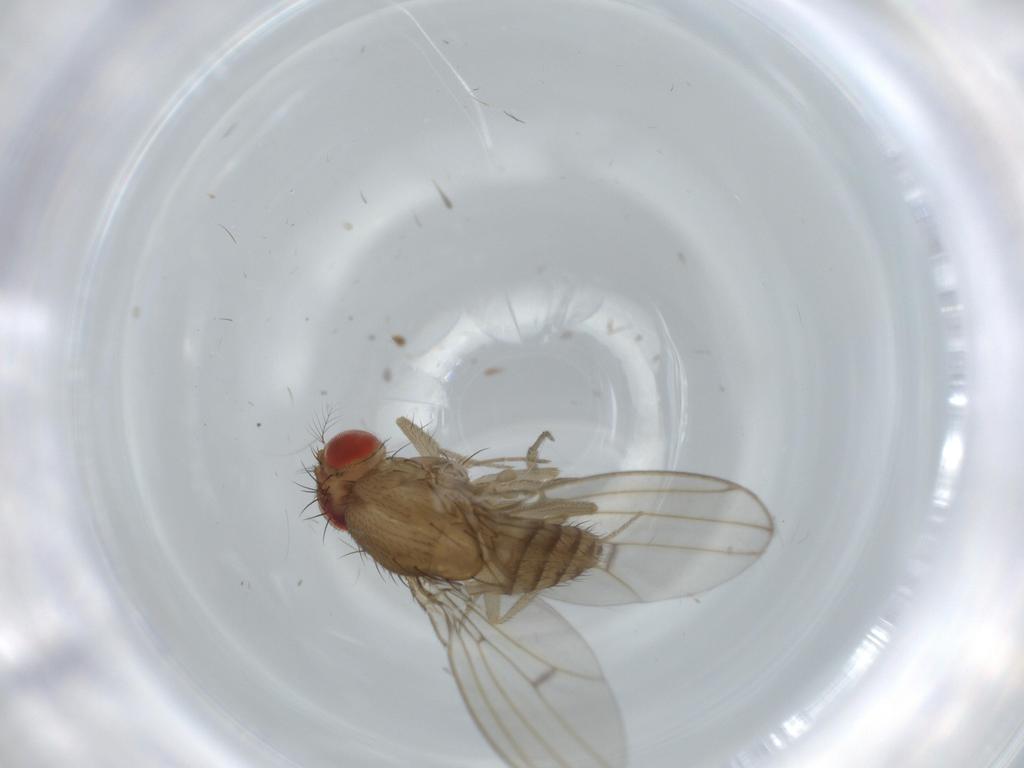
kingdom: Animalia
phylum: Arthropoda
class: Insecta
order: Diptera
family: Drosophilidae
